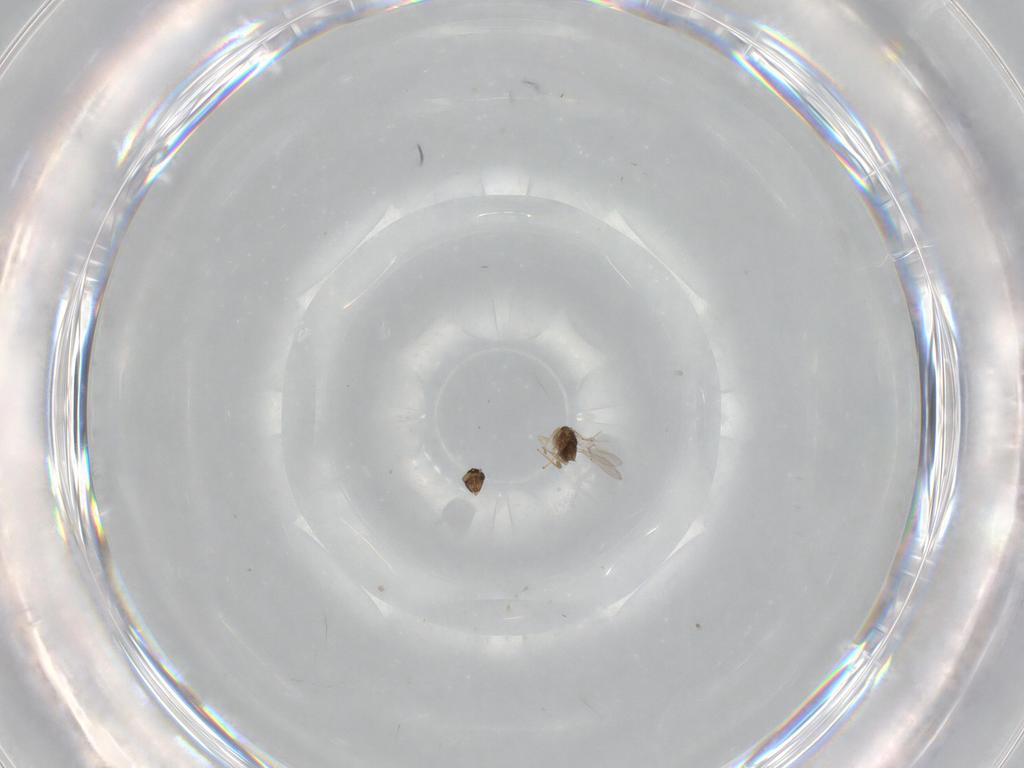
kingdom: Animalia
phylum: Arthropoda
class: Insecta
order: Hymenoptera
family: Encyrtidae
